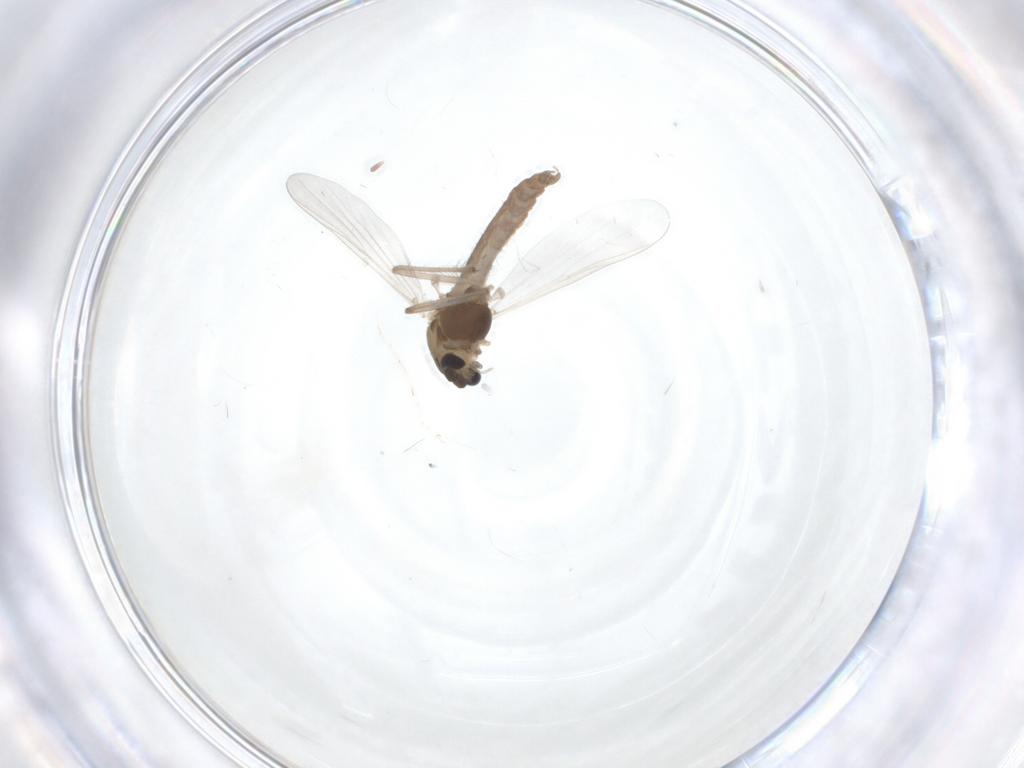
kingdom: Animalia
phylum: Arthropoda
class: Insecta
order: Diptera
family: Chironomidae
